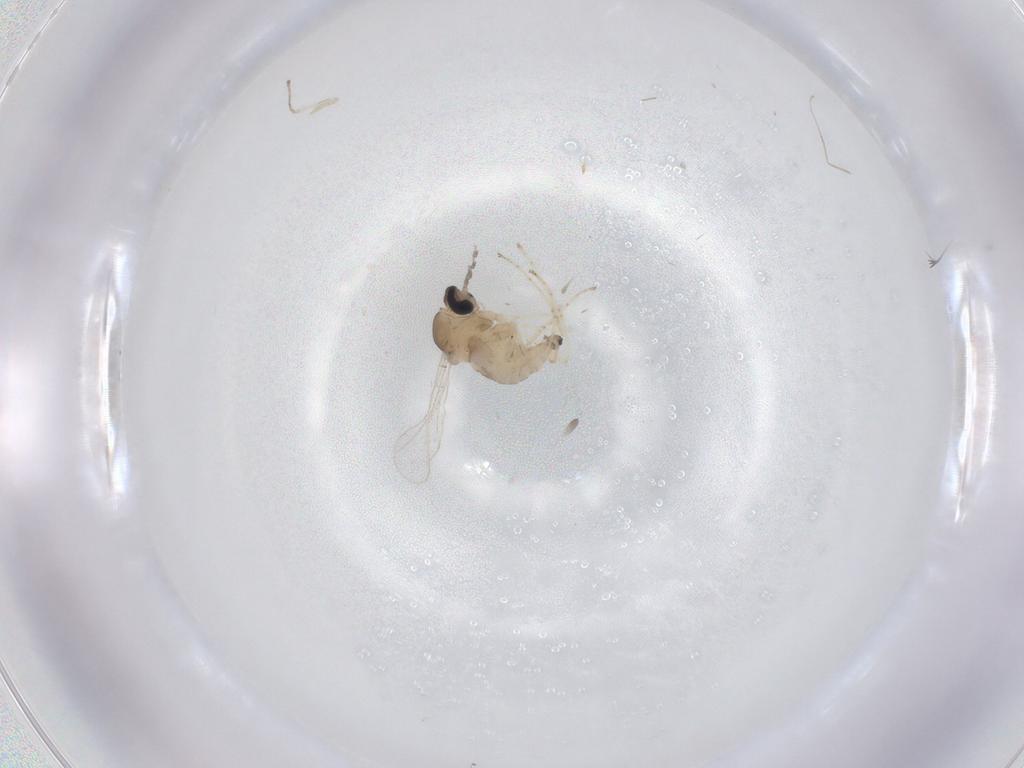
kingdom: Animalia
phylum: Arthropoda
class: Insecta
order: Diptera
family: Cecidomyiidae
